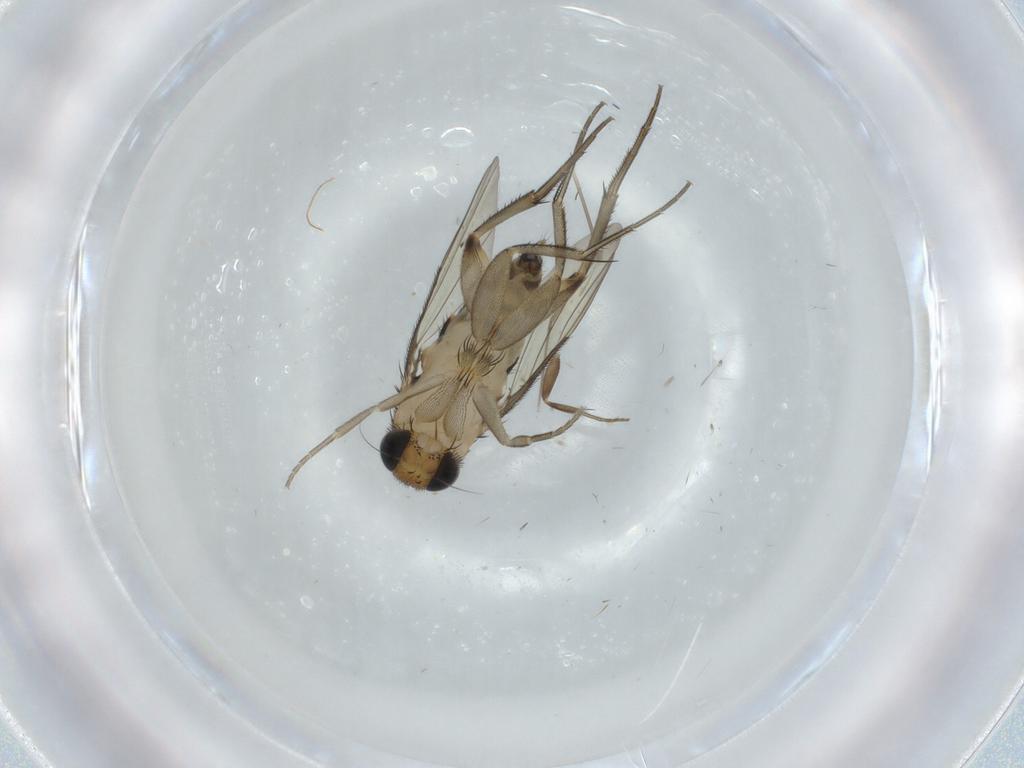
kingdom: Animalia
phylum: Arthropoda
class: Insecta
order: Diptera
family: Phoridae
